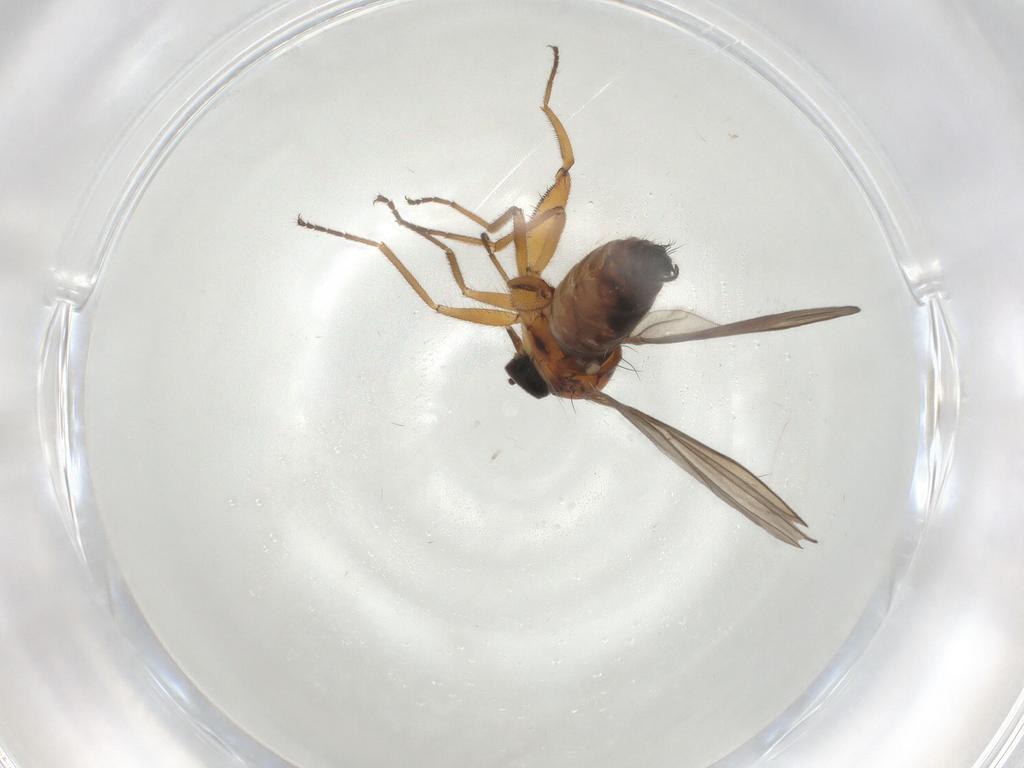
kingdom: Animalia
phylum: Arthropoda
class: Insecta
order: Diptera
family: Hybotidae
